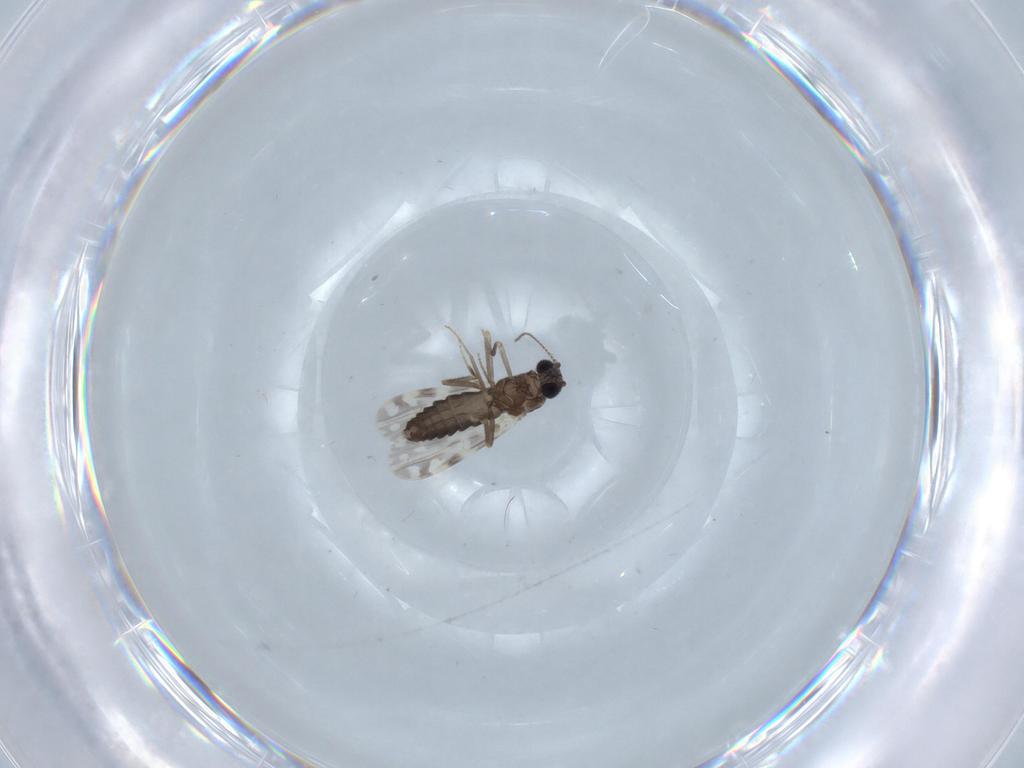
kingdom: Animalia
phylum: Arthropoda
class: Insecta
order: Diptera
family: Ceratopogonidae
